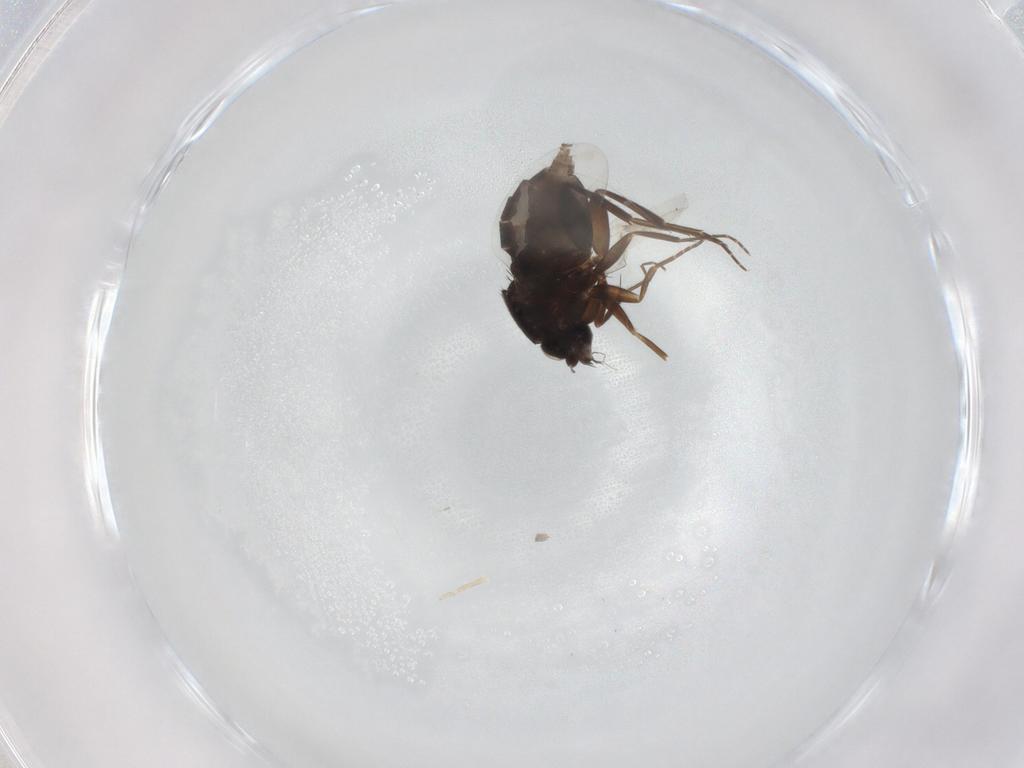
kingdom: Animalia
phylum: Arthropoda
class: Insecta
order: Diptera
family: Phoridae
